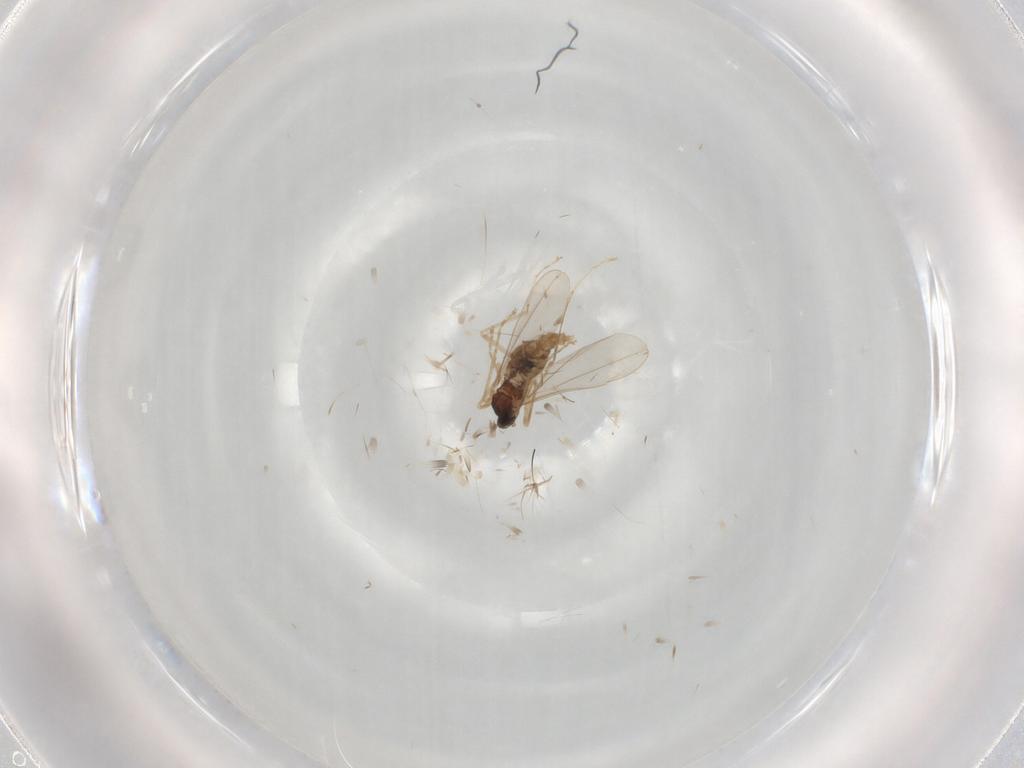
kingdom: Animalia
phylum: Arthropoda
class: Insecta
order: Diptera
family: Cecidomyiidae
